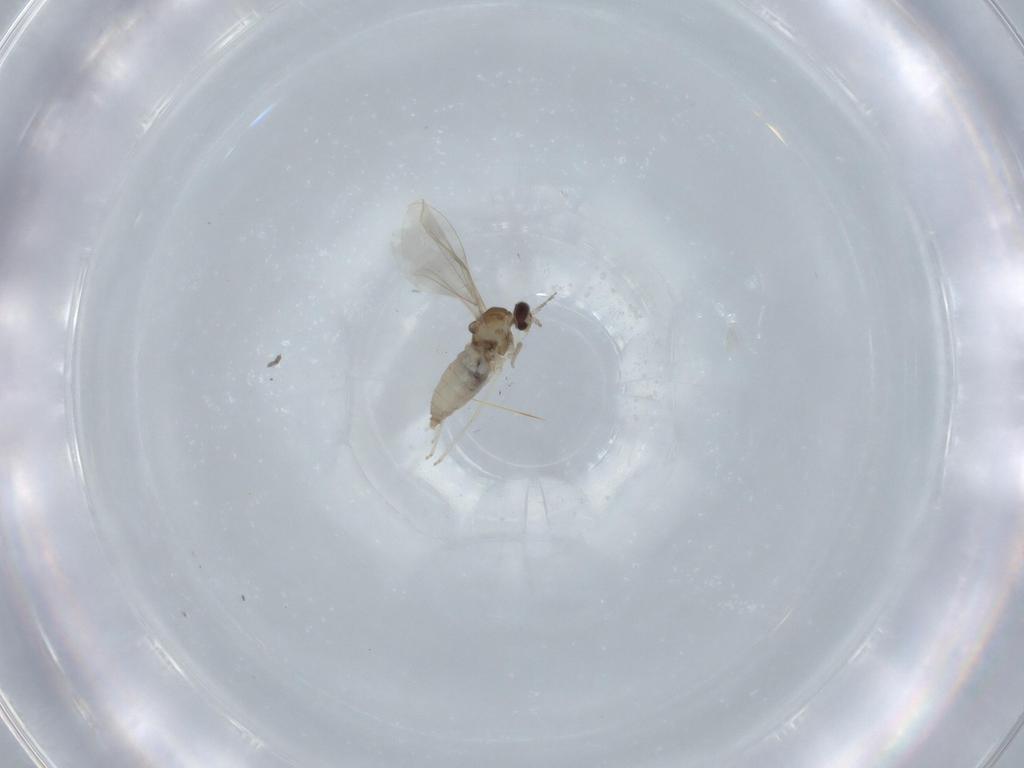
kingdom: Animalia
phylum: Arthropoda
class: Insecta
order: Diptera
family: Cecidomyiidae
